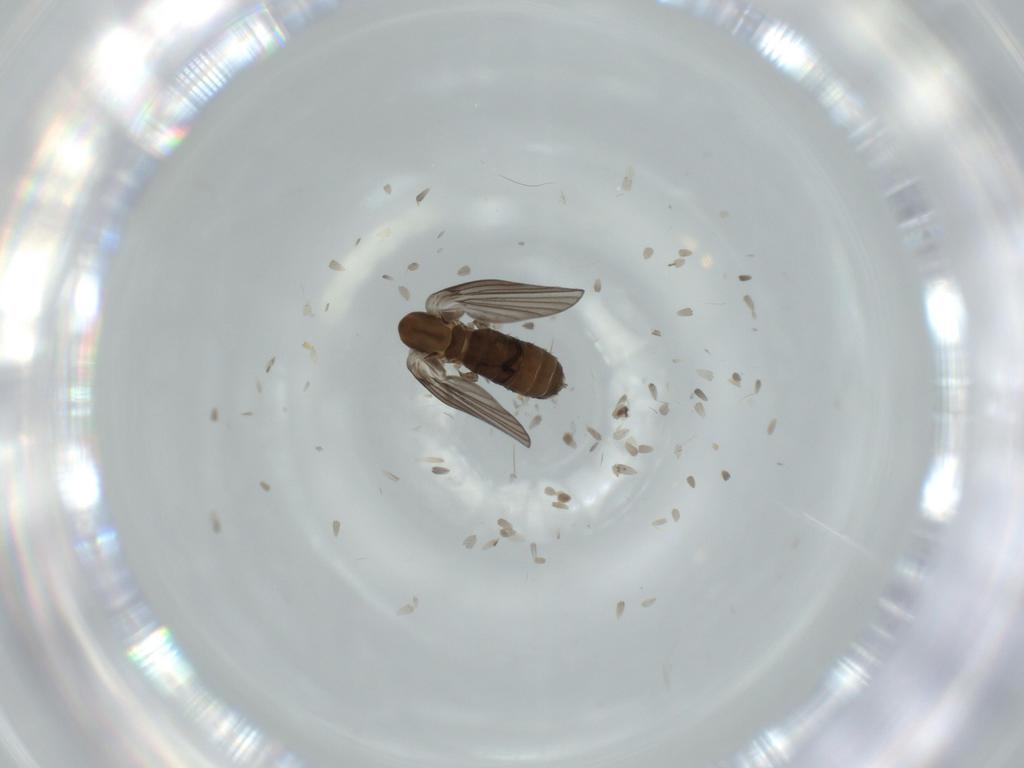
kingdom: Animalia
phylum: Arthropoda
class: Insecta
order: Diptera
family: Psychodidae
